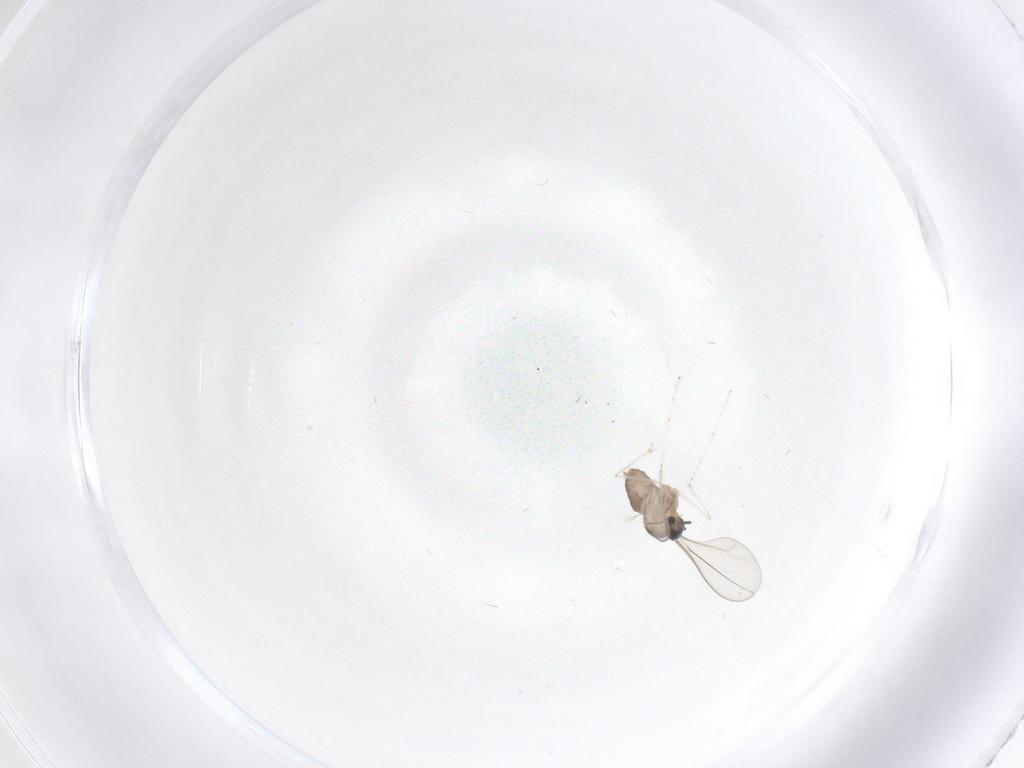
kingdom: Animalia
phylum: Arthropoda
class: Insecta
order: Diptera
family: Cecidomyiidae
